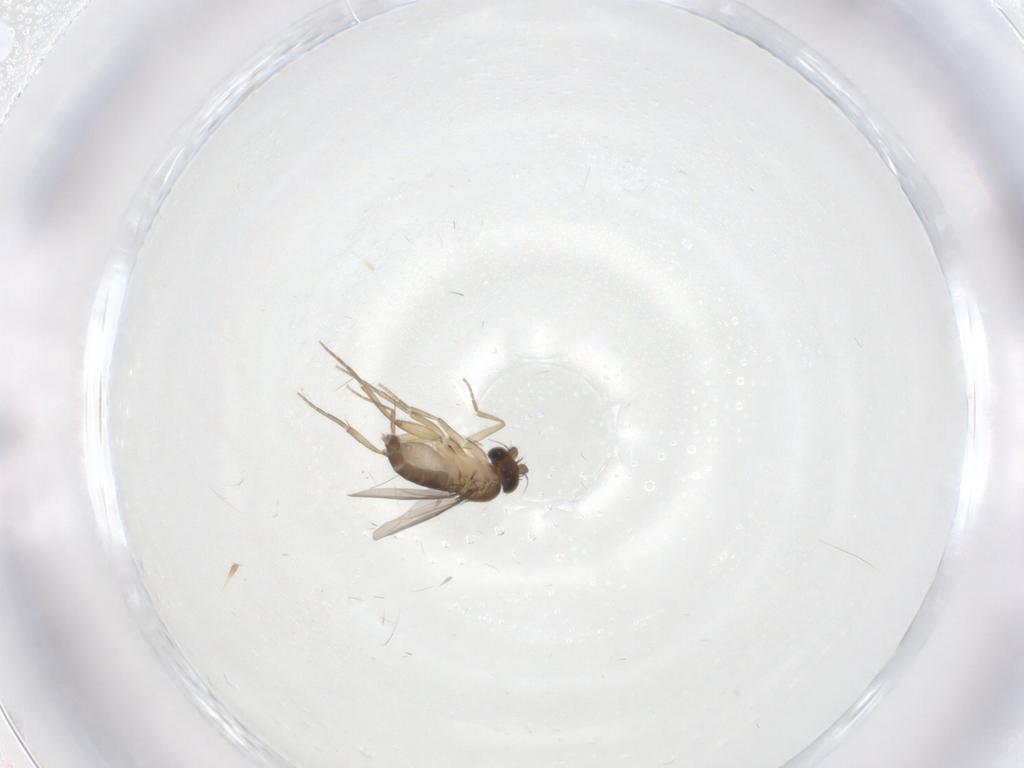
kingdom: Animalia
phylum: Arthropoda
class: Insecta
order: Diptera
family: Phoridae
